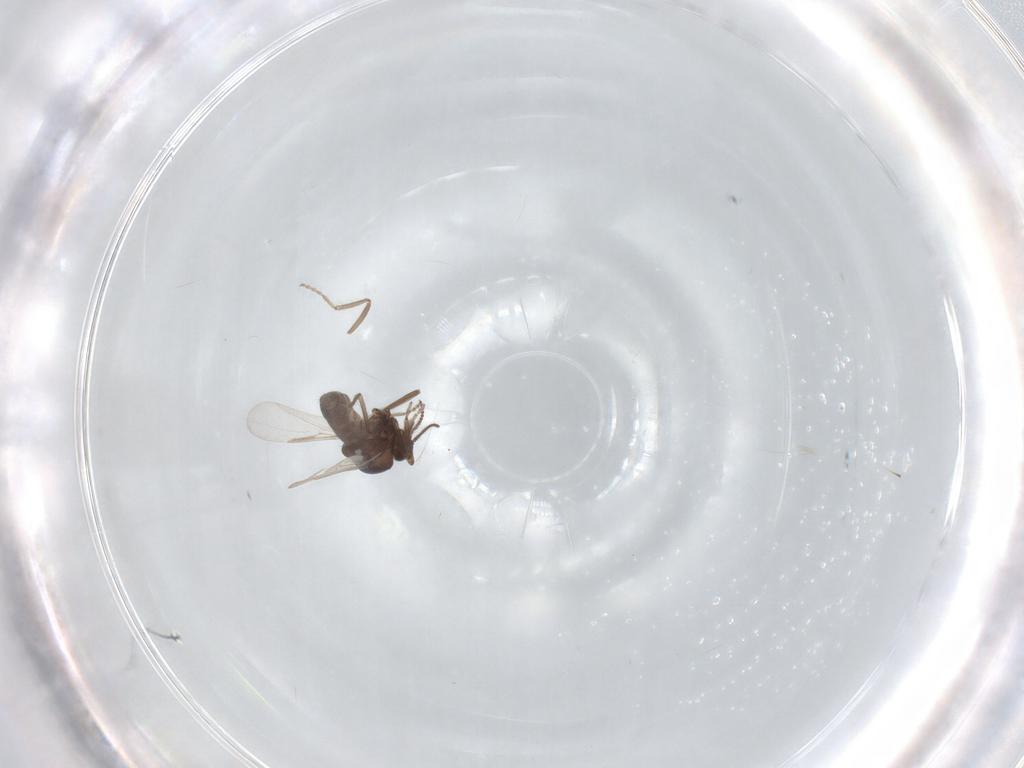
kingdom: Animalia
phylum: Arthropoda
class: Insecta
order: Diptera
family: Ceratopogonidae
